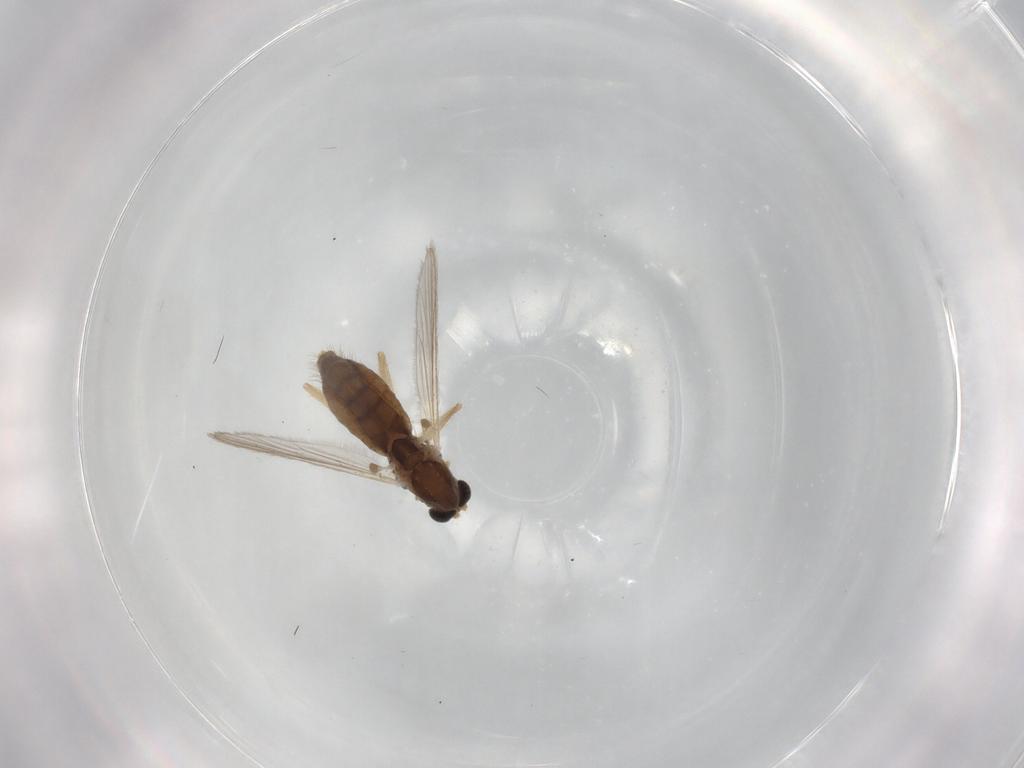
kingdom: Animalia
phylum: Arthropoda
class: Insecta
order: Diptera
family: Chironomidae
